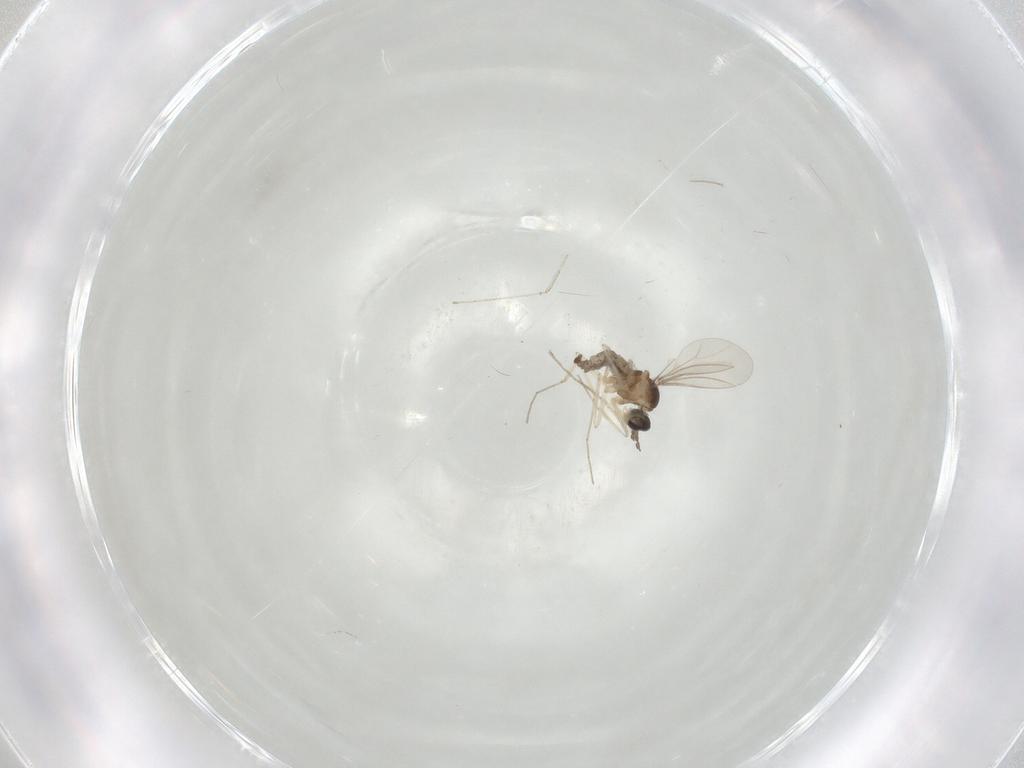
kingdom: Animalia
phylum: Arthropoda
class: Insecta
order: Diptera
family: Cecidomyiidae
